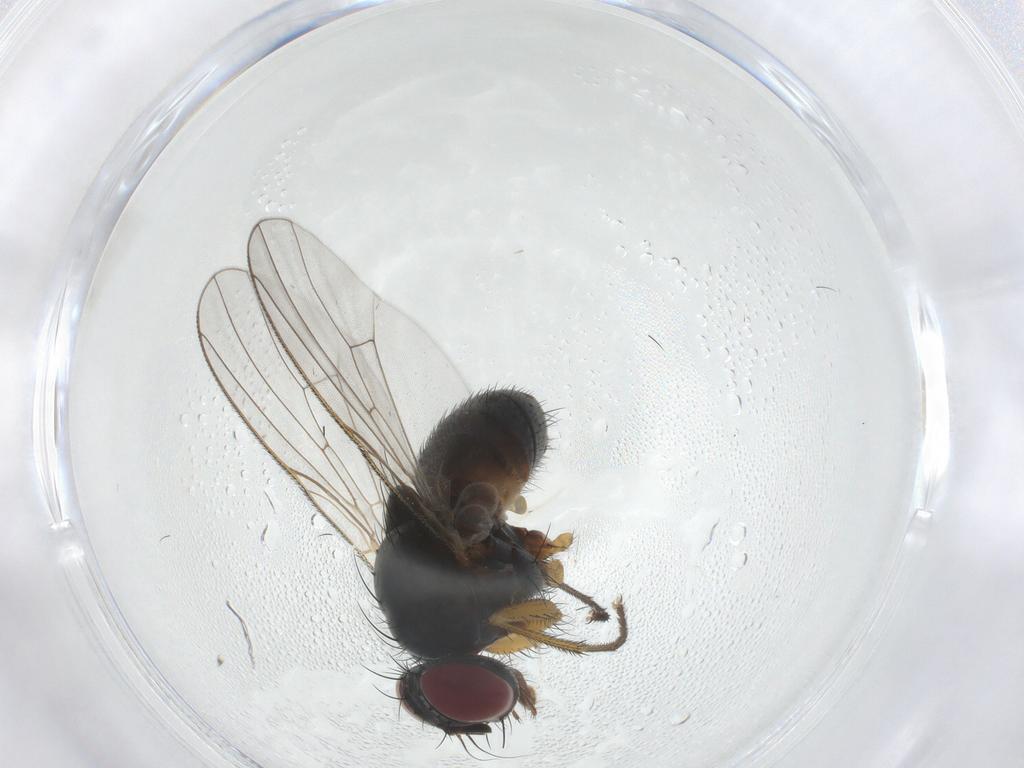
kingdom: Animalia
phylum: Arthropoda
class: Insecta
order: Diptera
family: Muscidae
